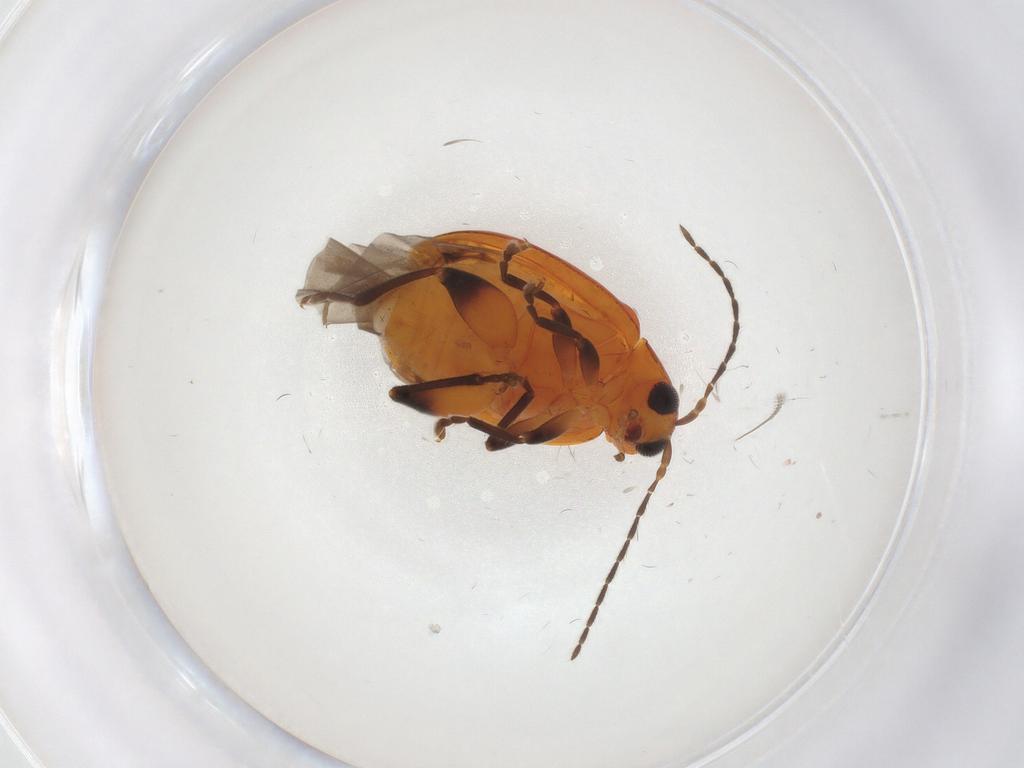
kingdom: Animalia
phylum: Arthropoda
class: Insecta
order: Coleoptera
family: Chrysomelidae
